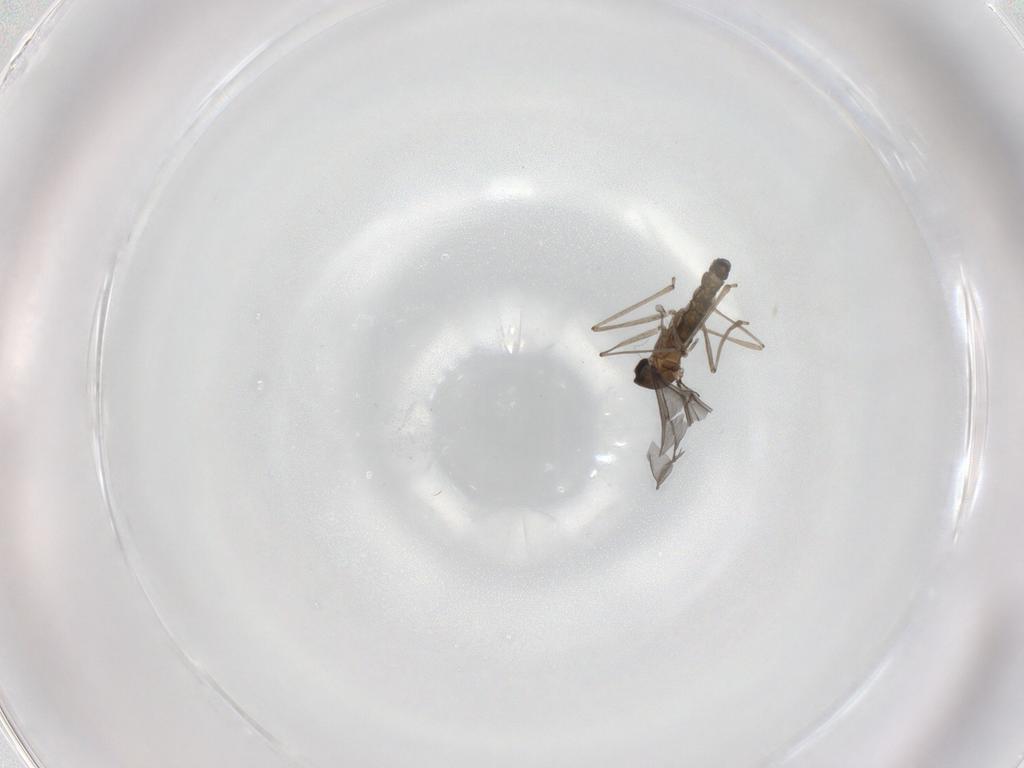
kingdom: Animalia
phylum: Arthropoda
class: Insecta
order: Diptera
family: Cecidomyiidae
